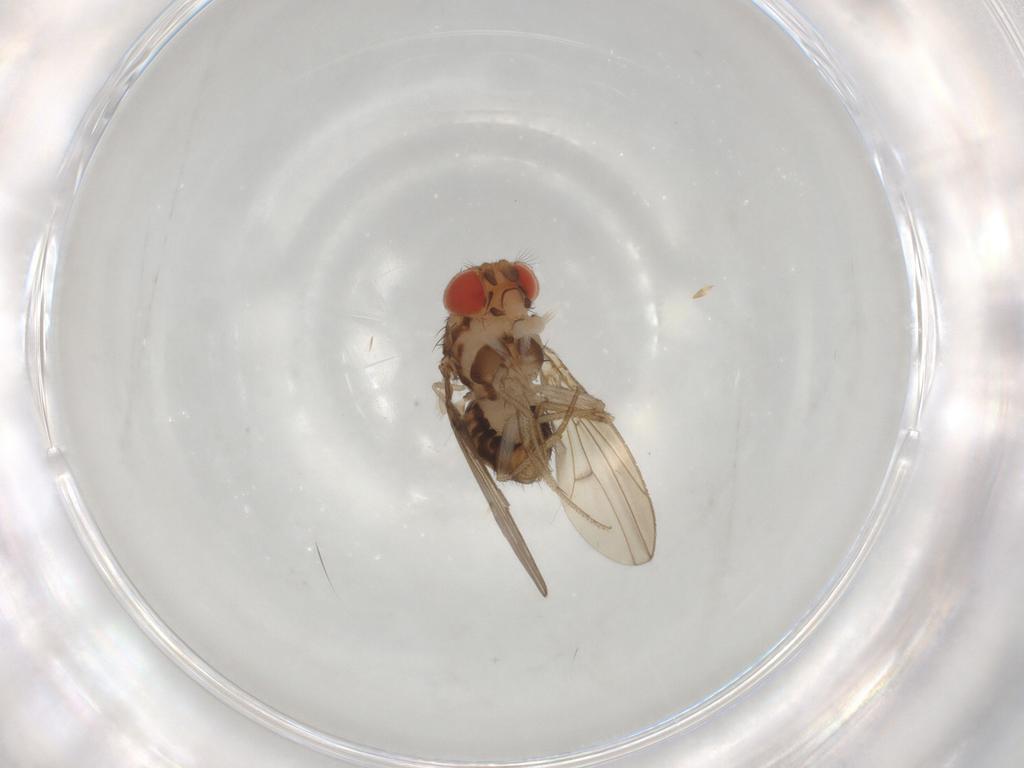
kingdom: Animalia
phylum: Arthropoda
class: Insecta
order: Diptera
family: Drosophilidae
